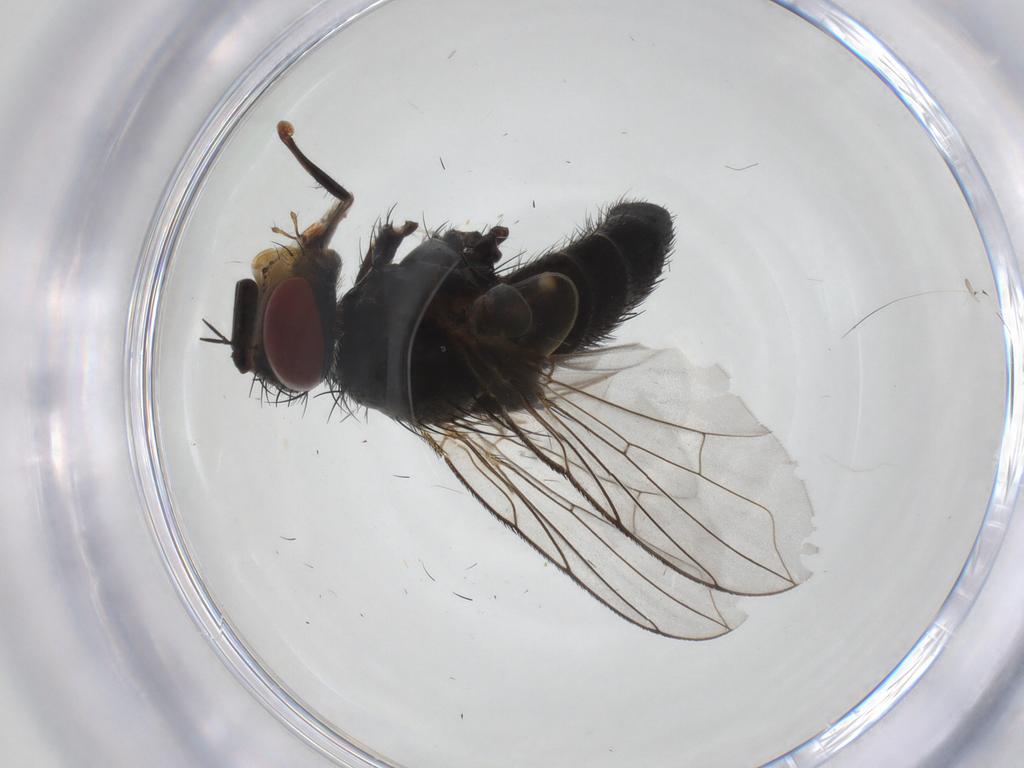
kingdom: Animalia
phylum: Arthropoda
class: Insecta
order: Diptera
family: Tachinidae
